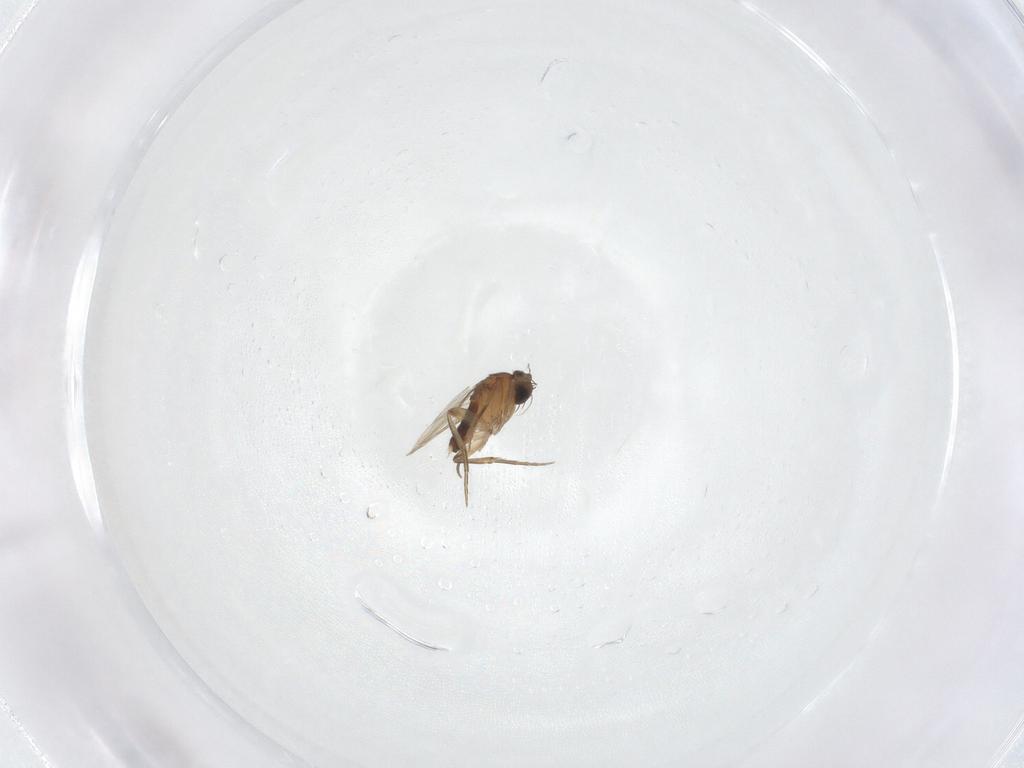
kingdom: Animalia
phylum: Arthropoda
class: Insecta
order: Diptera
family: Phoridae
